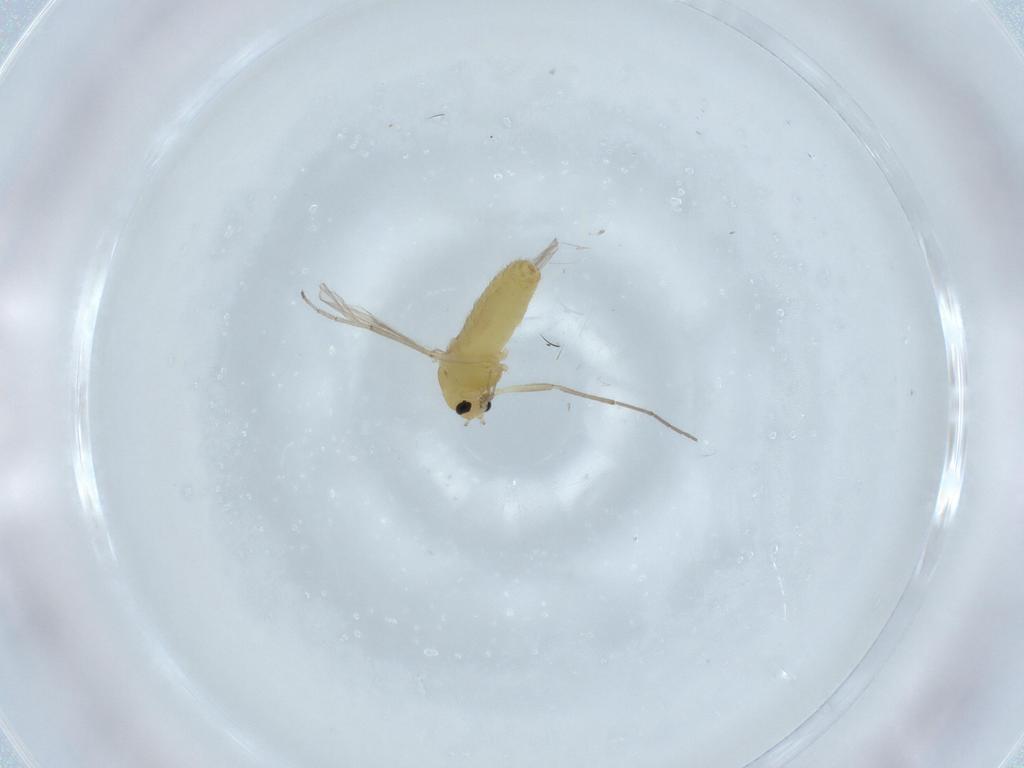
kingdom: Animalia
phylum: Arthropoda
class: Insecta
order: Diptera
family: Chironomidae
